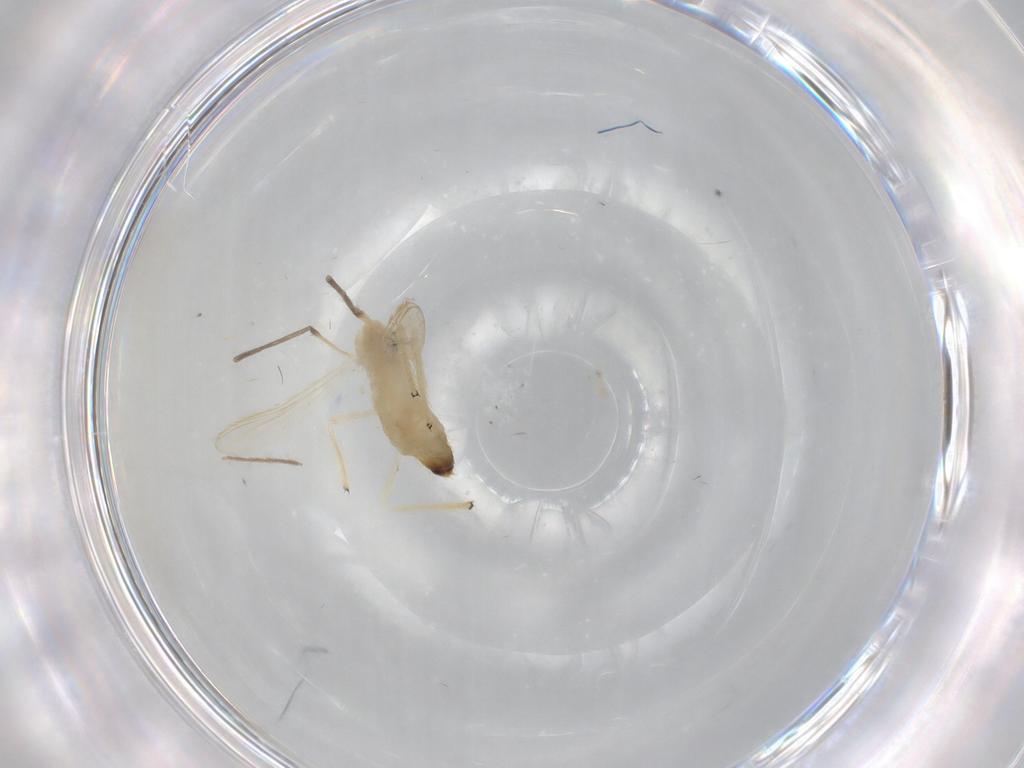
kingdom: Animalia
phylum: Arthropoda
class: Insecta
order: Diptera
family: Chironomidae
